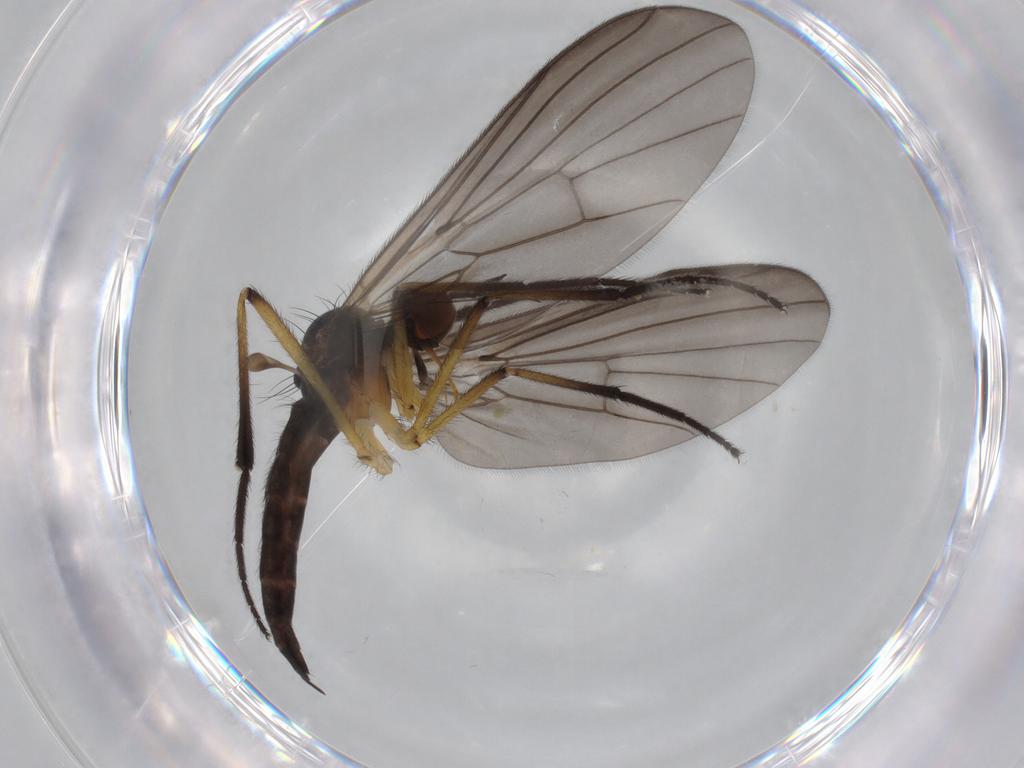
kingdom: Animalia
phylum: Arthropoda
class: Insecta
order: Diptera
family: Empididae
